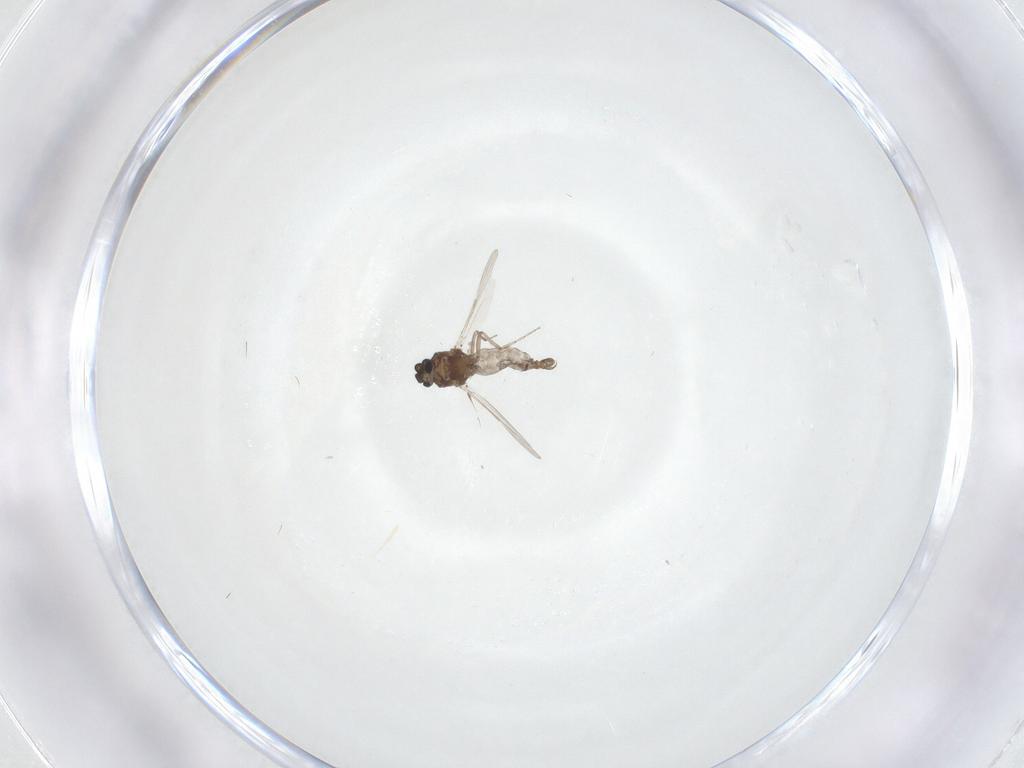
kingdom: Animalia
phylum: Arthropoda
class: Insecta
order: Diptera
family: Ceratopogonidae
